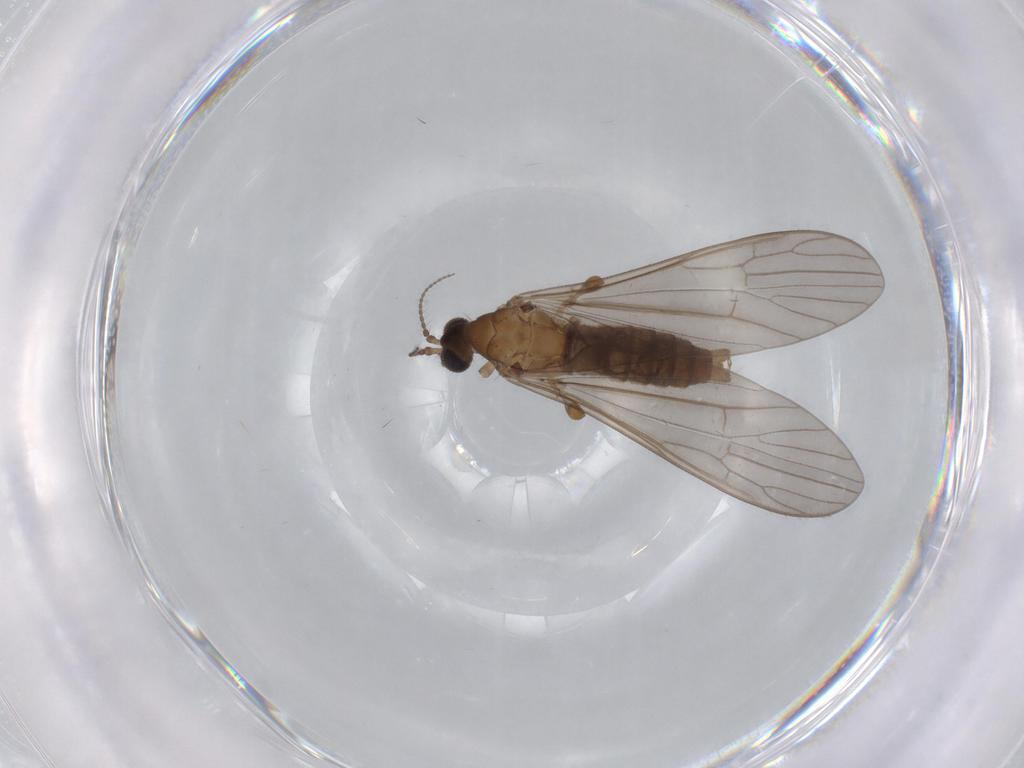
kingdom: Animalia
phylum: Arthropoda
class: Insecta
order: Diptera
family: Limoniidae
